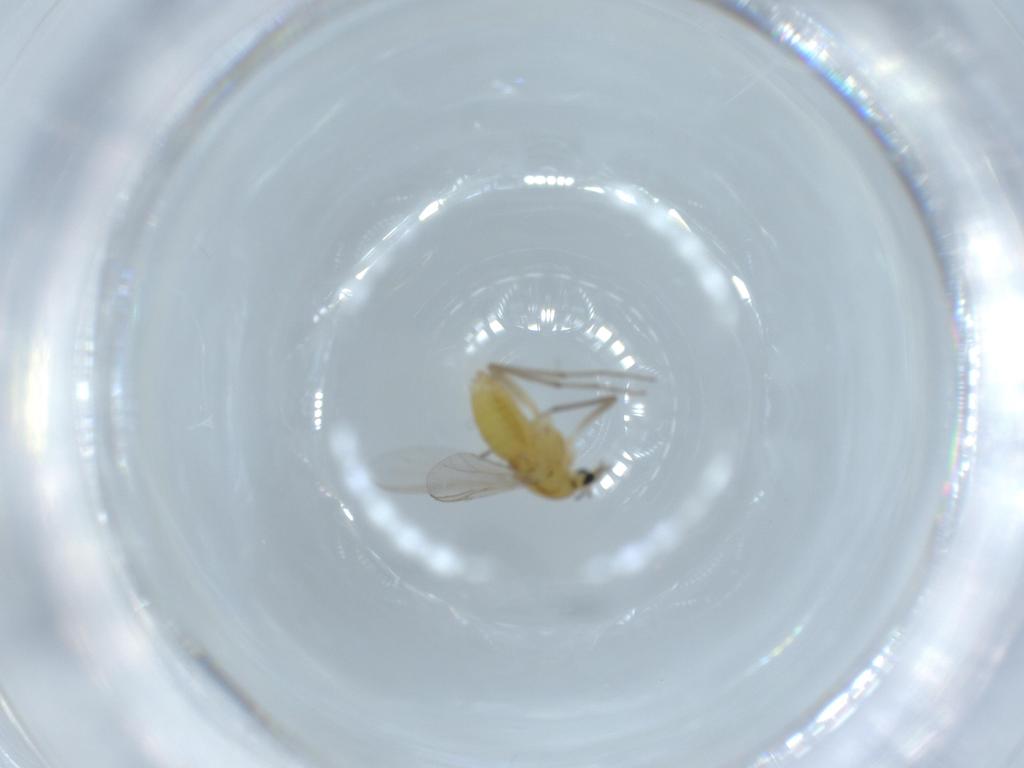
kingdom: Animalia
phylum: Arthropoda
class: Insecta
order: Diptera
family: Chironomidae
